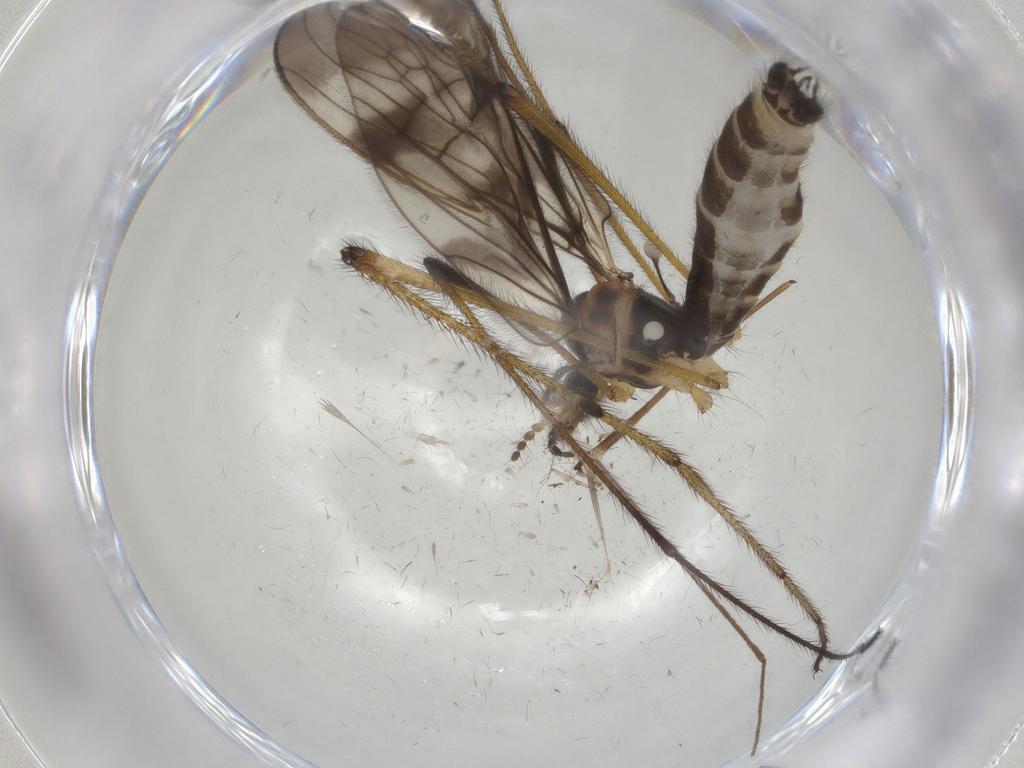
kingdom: Animalia
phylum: Arthropoda
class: Insecta
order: Diptera
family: Limoniidae
